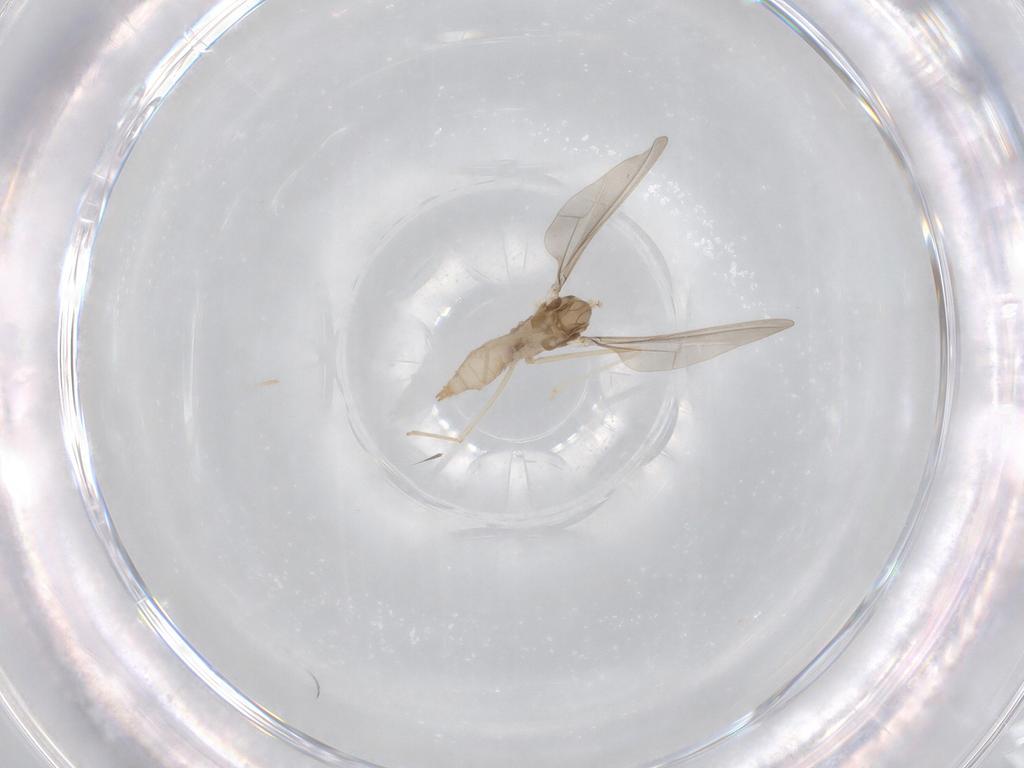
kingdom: Animalia
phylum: Arthropoda
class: Insecta
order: Diptera
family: Cecidomyiidae
